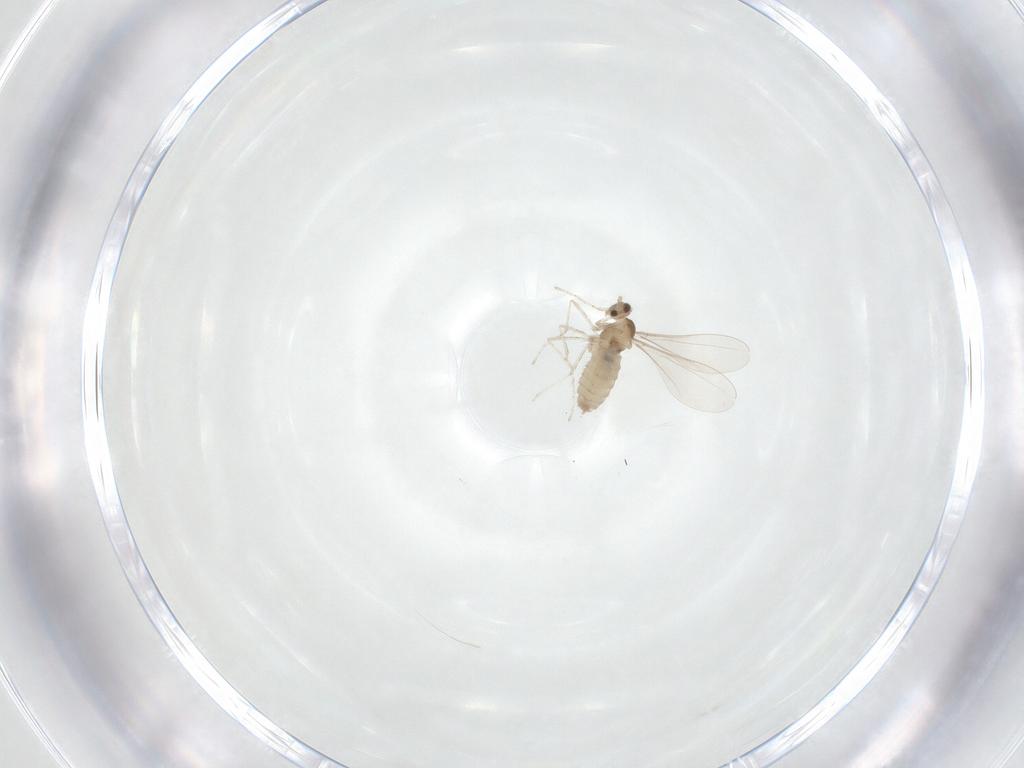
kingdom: Animalia
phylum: Arthropoda
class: Insecta
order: Diptera
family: Cecidomyiidae
